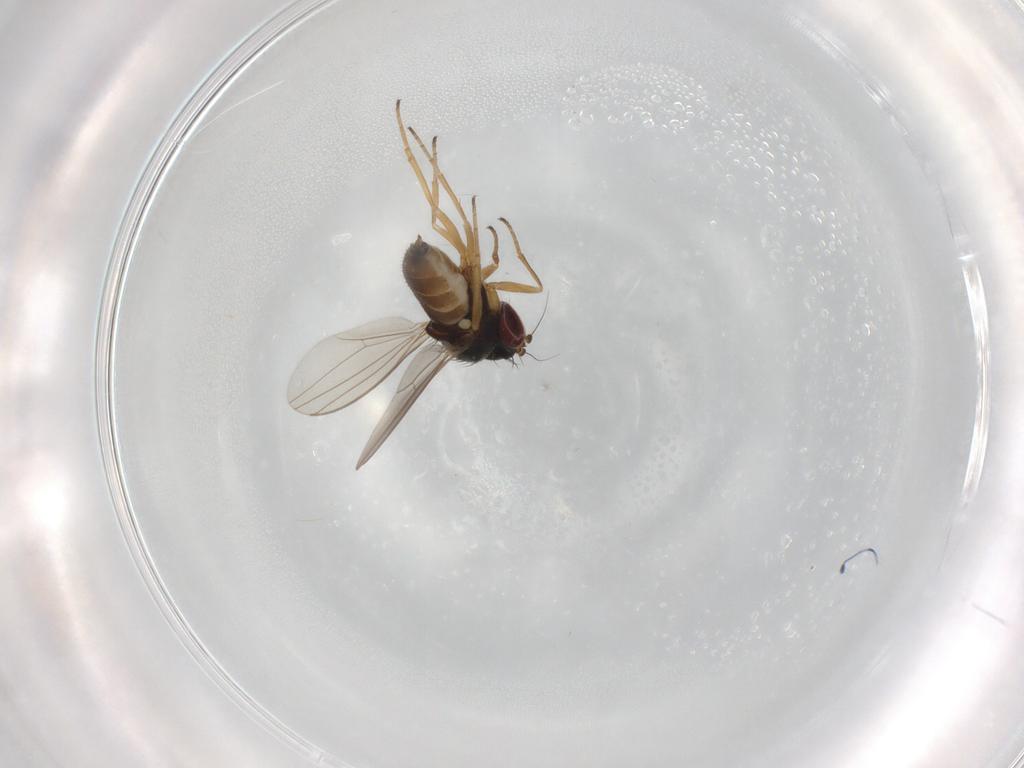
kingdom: Animalia
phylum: Arthropoda
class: Insecta
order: Diptera
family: Dolichopodidae
